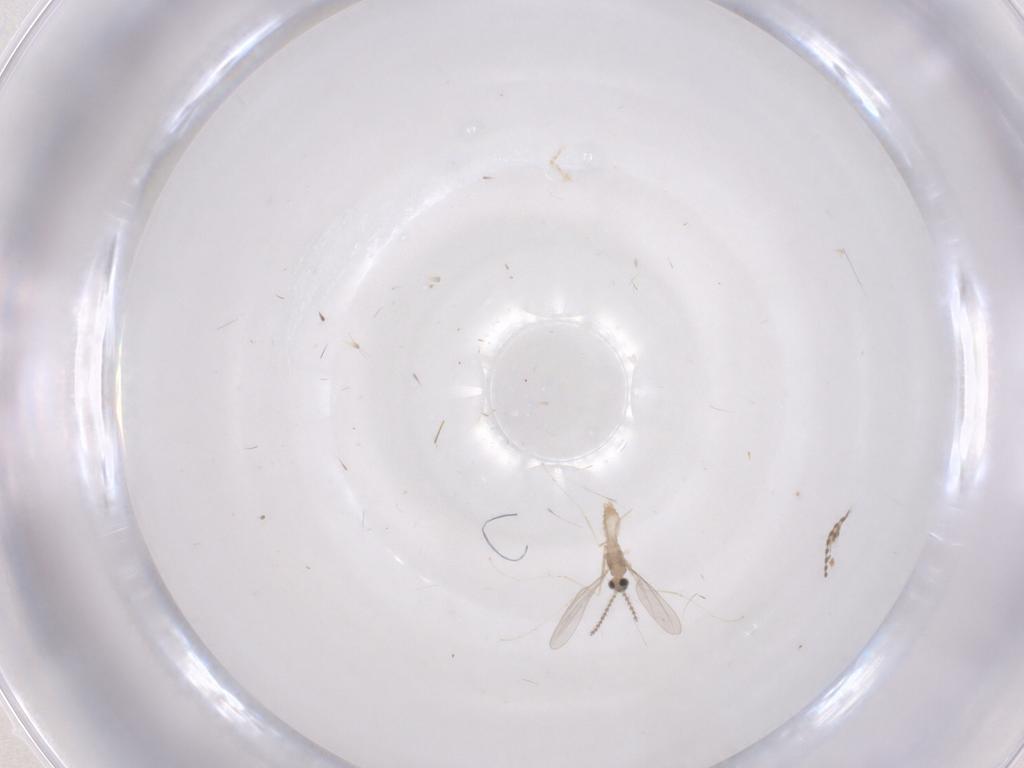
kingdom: Animalia
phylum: Arthropoda
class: Insecta
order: Diptera
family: Cecidomyiidae
